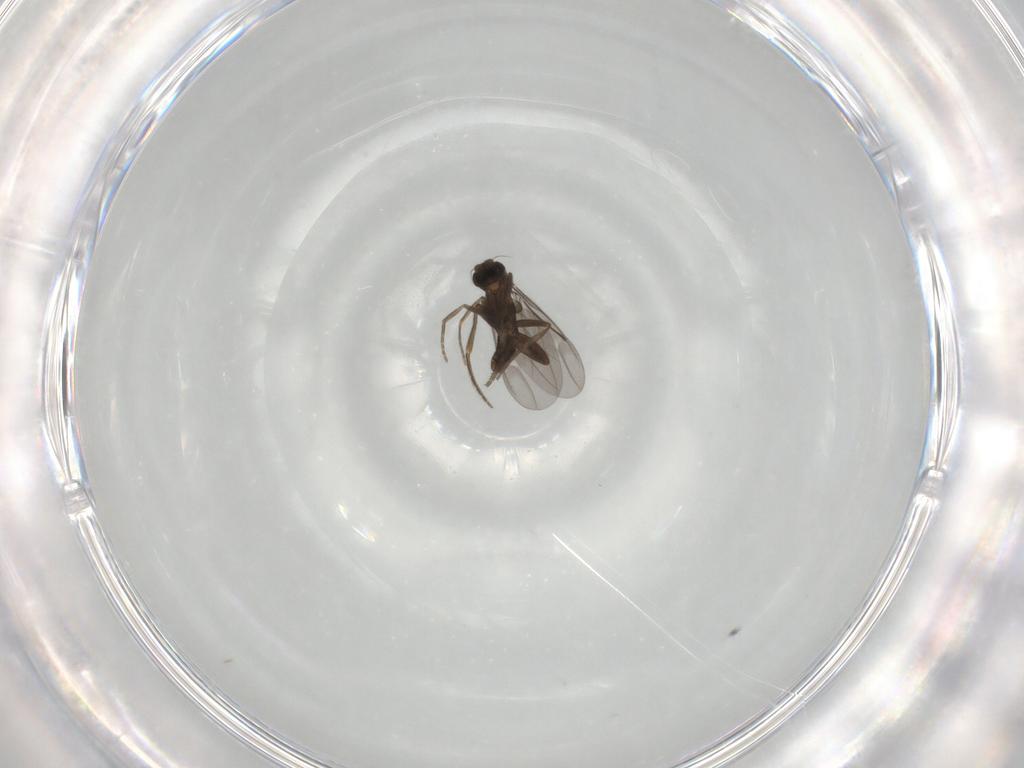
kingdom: Animalia
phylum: Arthropoda
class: Insecta
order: Diptera
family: Phoridae
